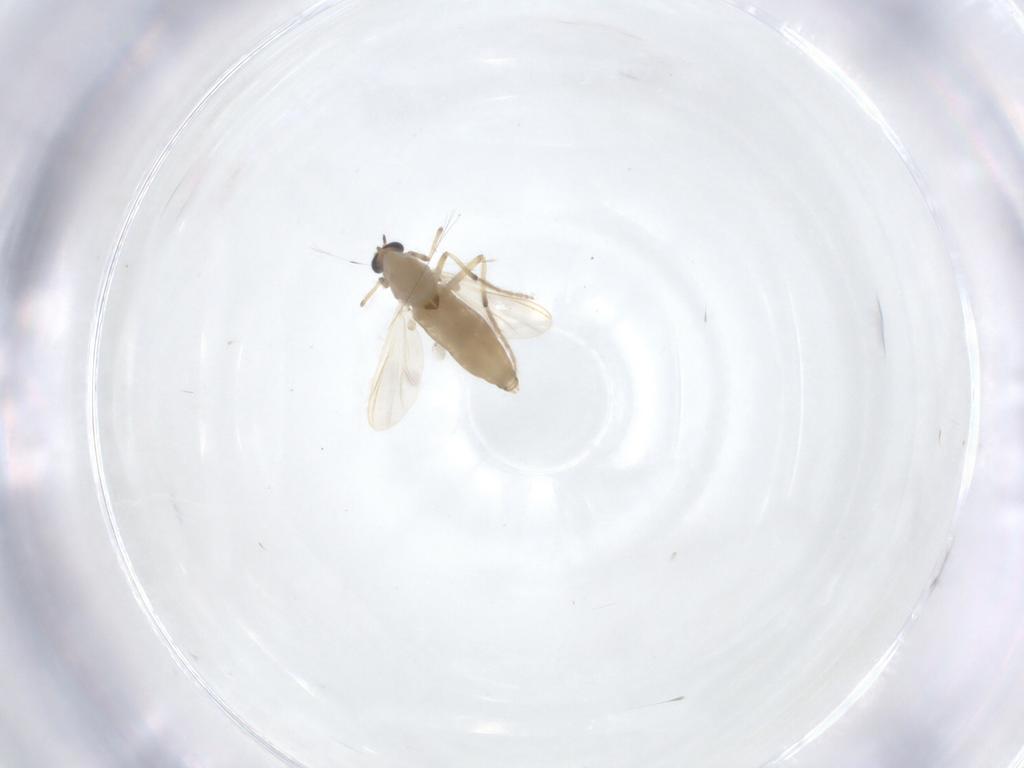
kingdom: Animalia
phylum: Arthropoda
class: Insecta
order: Diptera
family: Chironomidae
